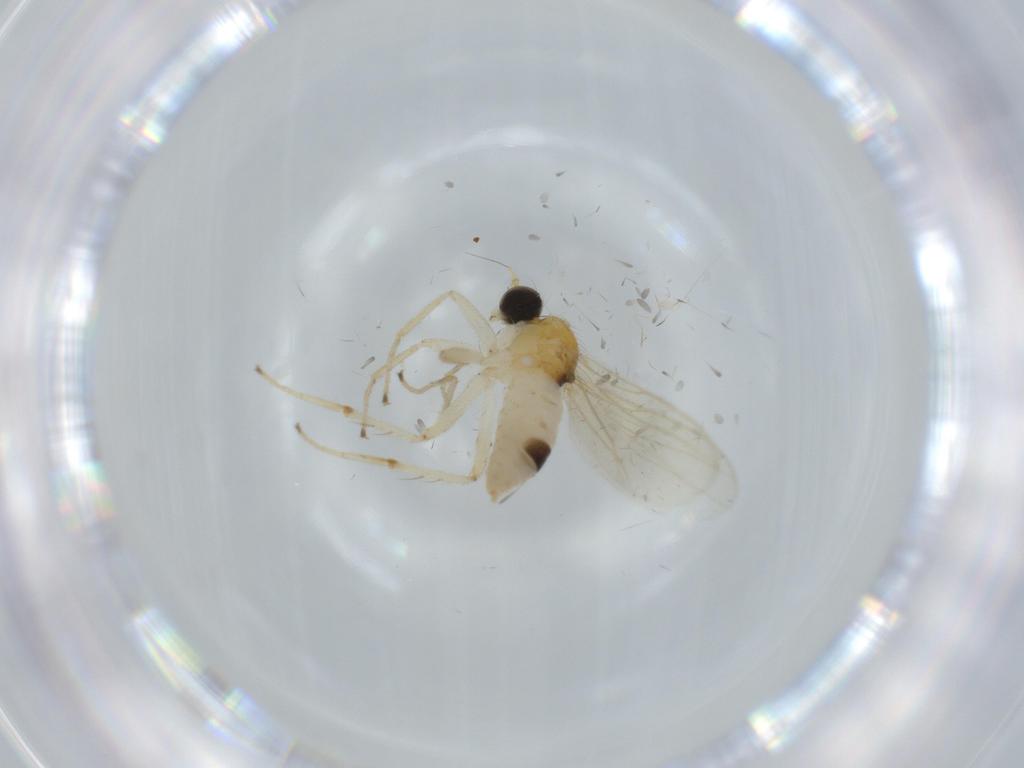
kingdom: Animalia
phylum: Arthropoda
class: Insecta
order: Diptera
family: Hybotidae
